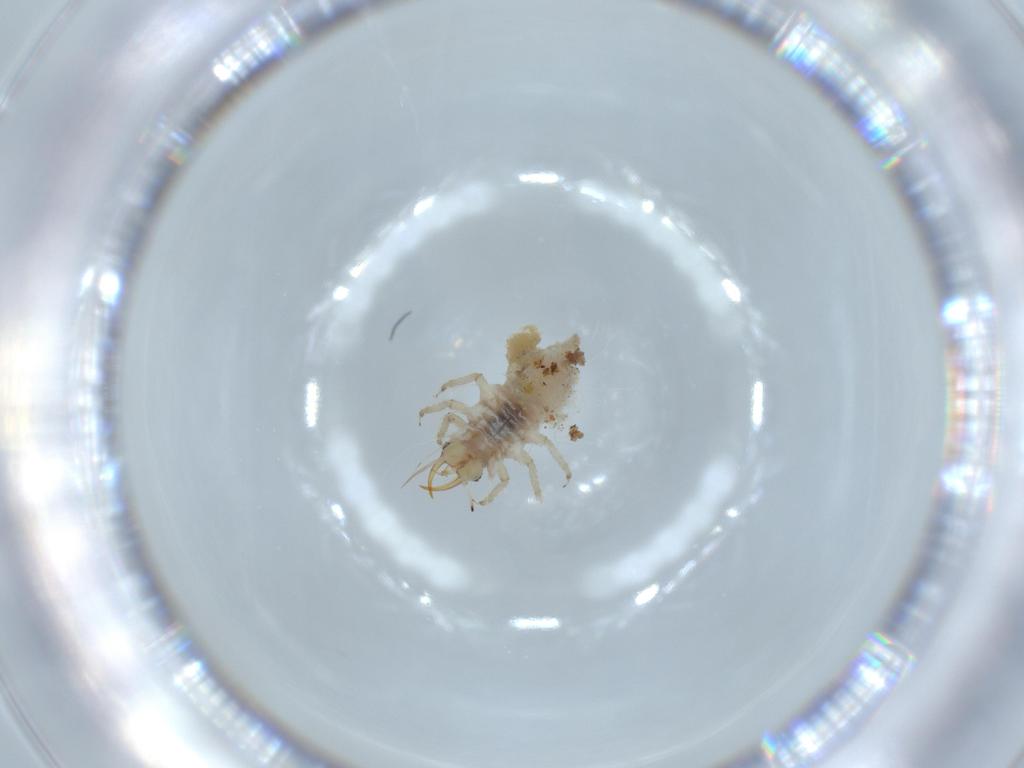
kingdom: Animalia
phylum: Arthropoda
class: Insecta
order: Neuroptera
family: Chrysopidae
